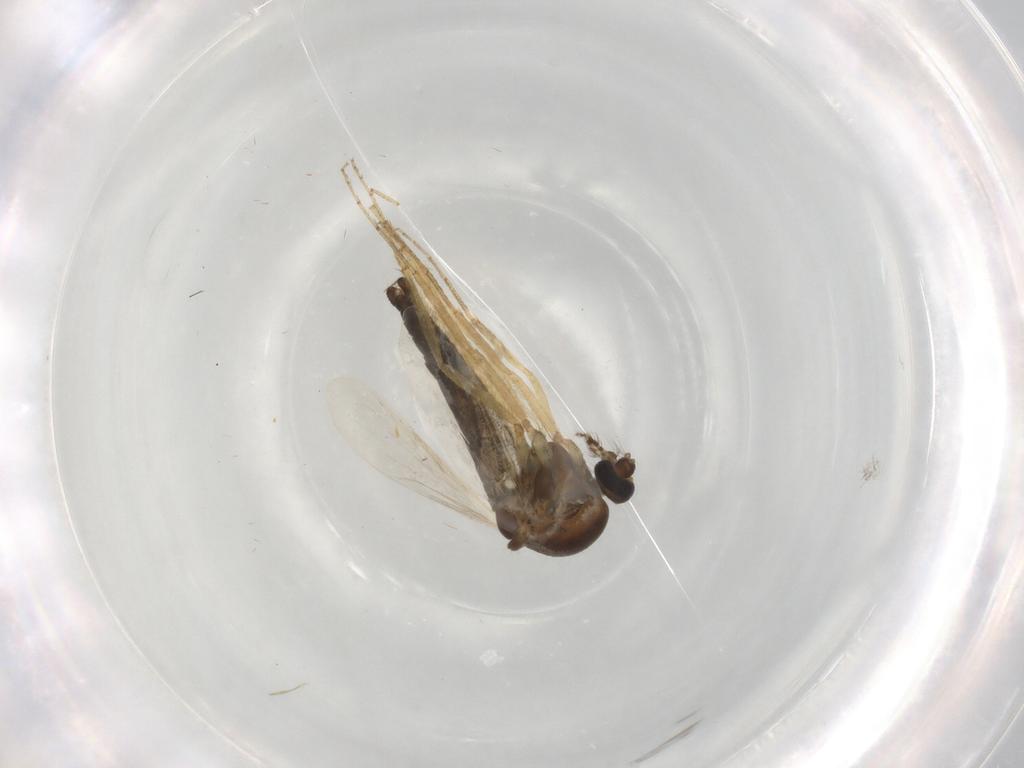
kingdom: Animalia
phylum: Arthropoda
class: Insecta
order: Diptera
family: Ceratopogonidae
